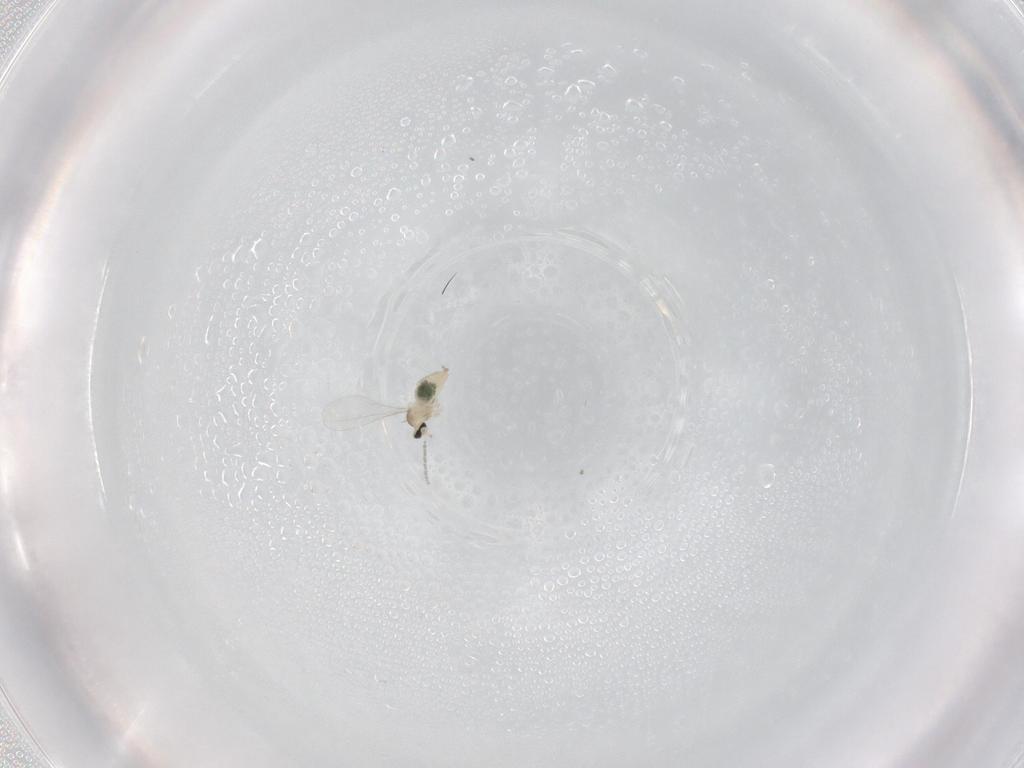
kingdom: Animalia
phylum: Arthropoda
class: Insecta
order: Diptera
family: Cecidomyiidae
